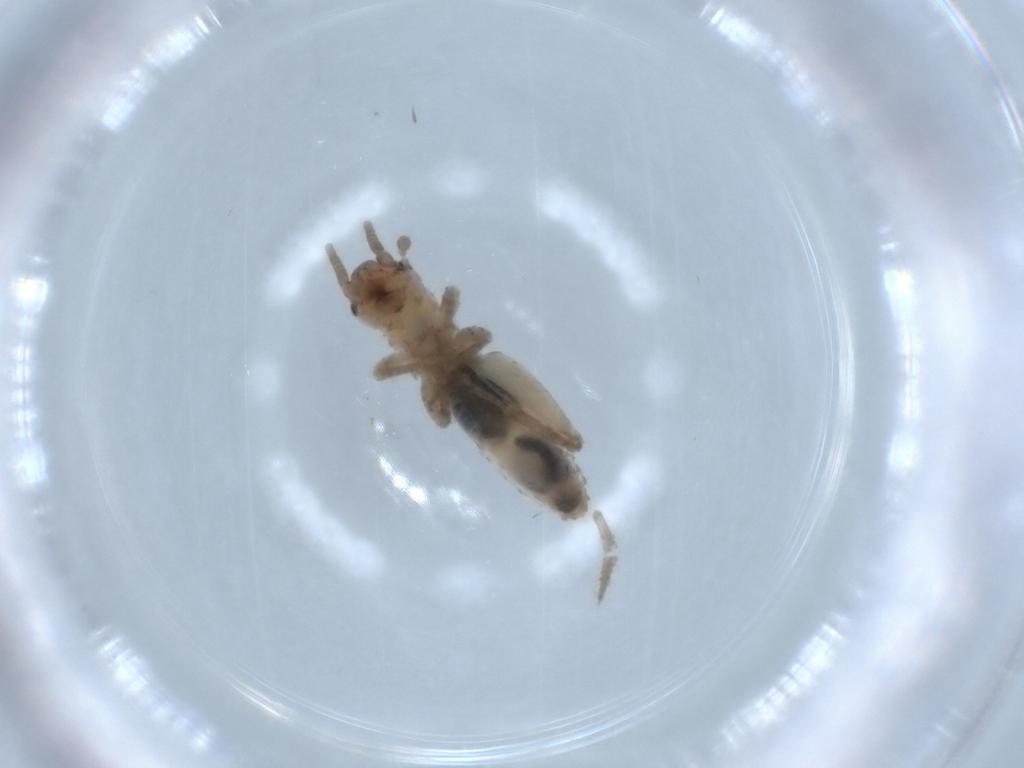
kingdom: Animalia
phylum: Arthropoda
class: Insecta
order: Orthoptera
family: Mogoplistidae
